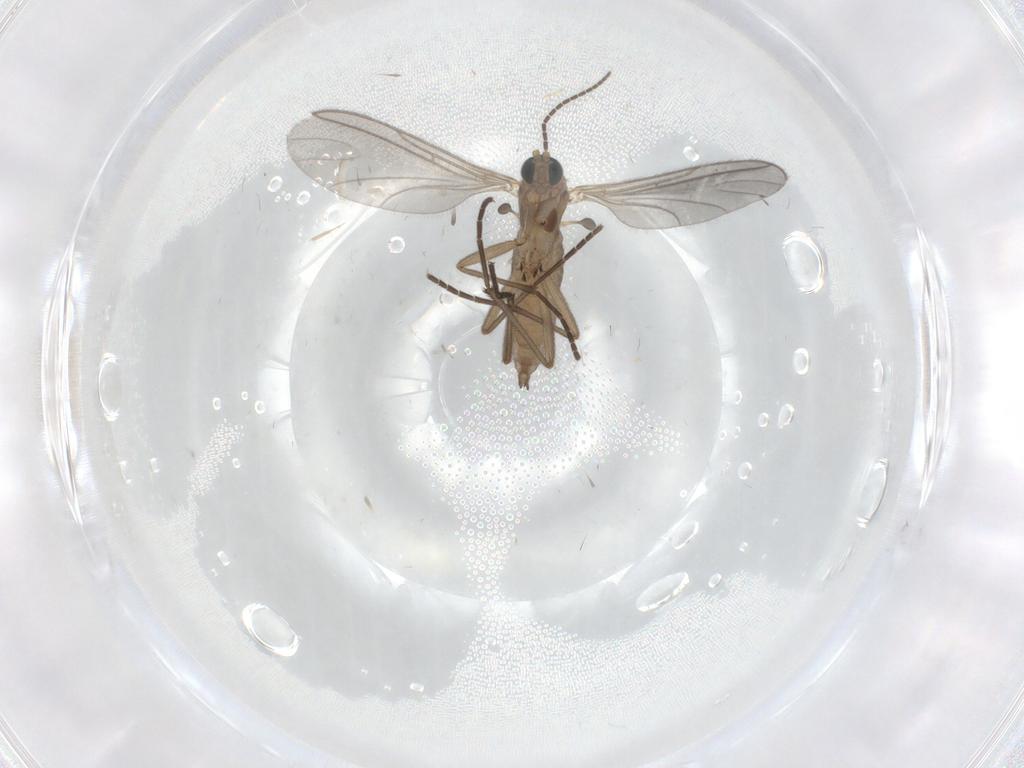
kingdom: Animalia
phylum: Arthropoda
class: Insecta
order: Diptera
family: Sciaridae
